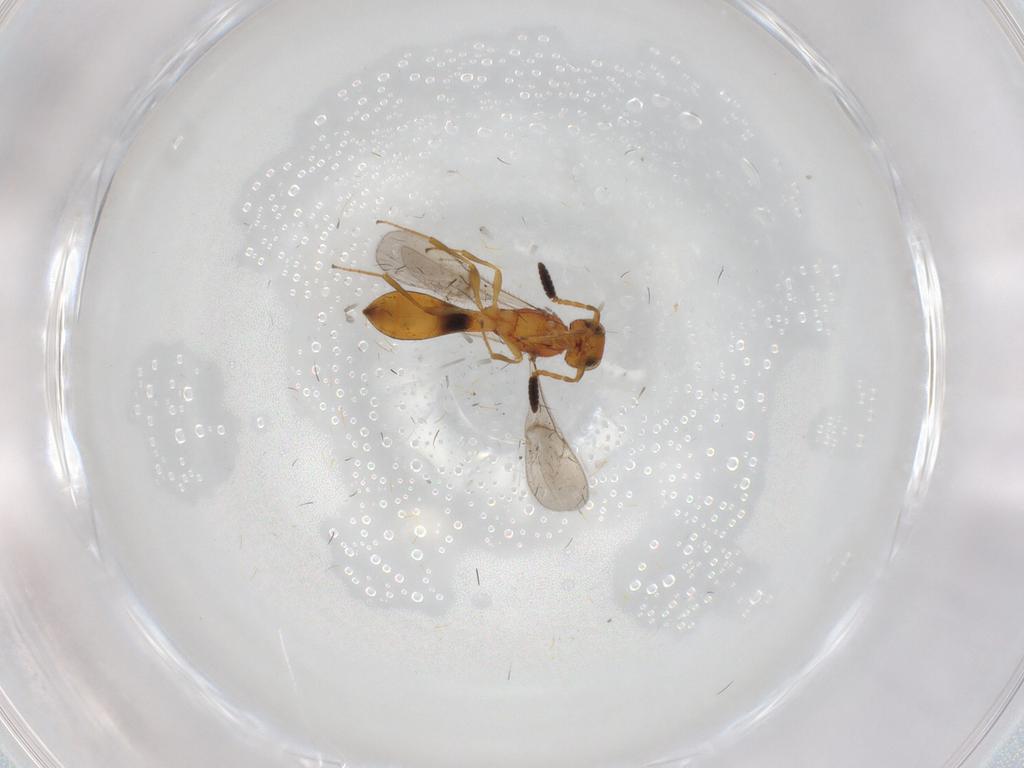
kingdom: Animalia
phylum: Arthropoda
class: Insecta
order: Hymenoptera
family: Scelionidae
